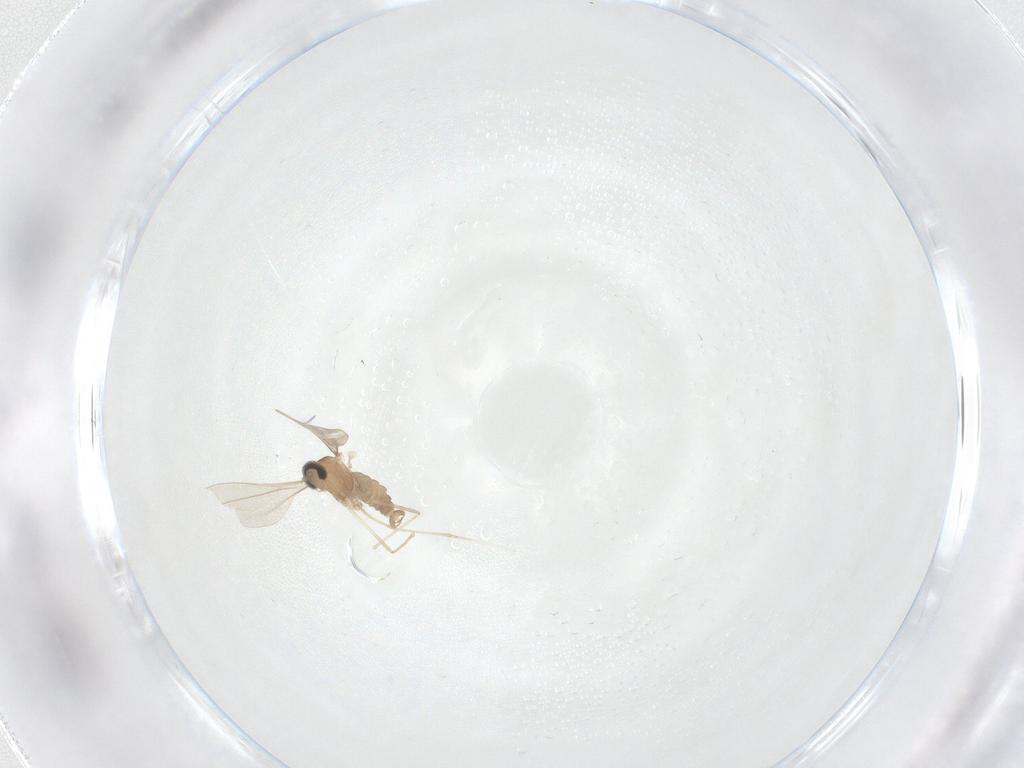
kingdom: Animalia
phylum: Arthropoda
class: Insecta
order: Diptera
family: Cecidomyiidae
